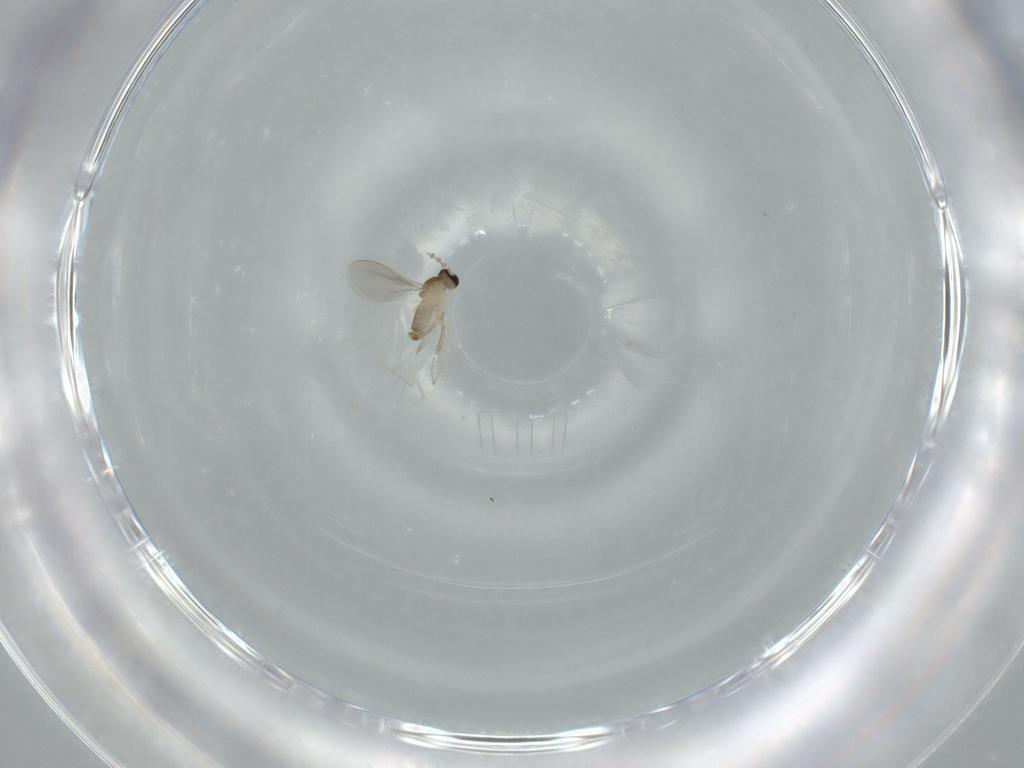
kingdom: Animalia
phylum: Arthropoda
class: Insecta
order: Diptera
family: Cecidomyiidae
